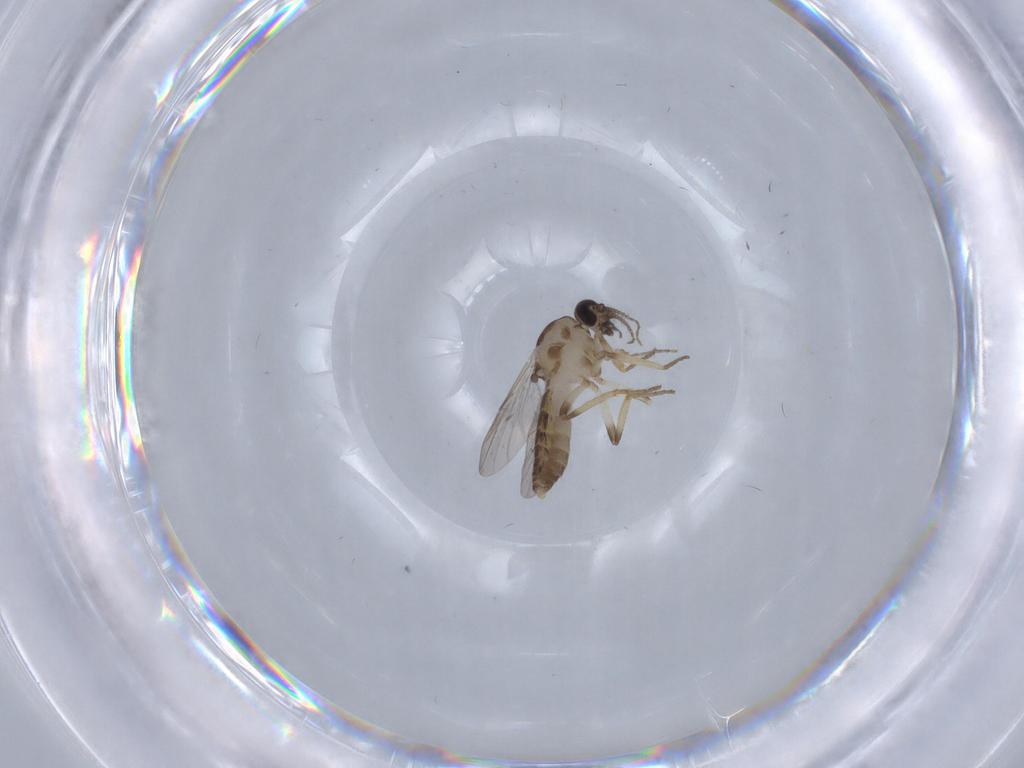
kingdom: Animalia
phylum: Arthropoda
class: Insecta
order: Diptera
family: Ceratopogonidae
